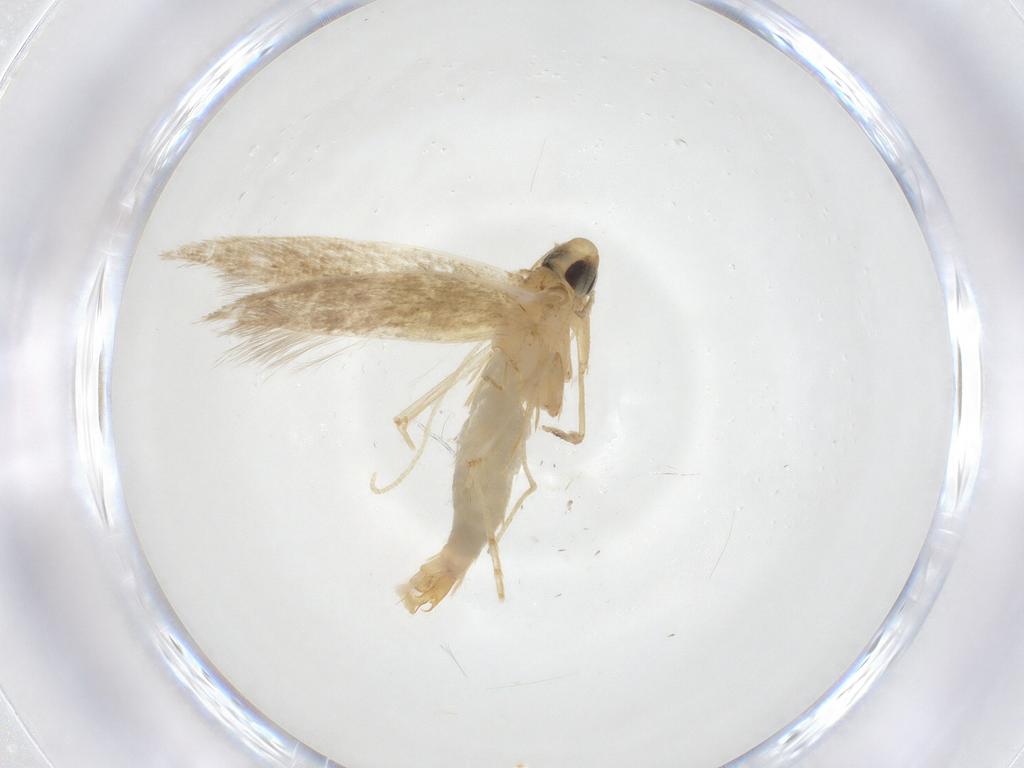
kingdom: Animalia
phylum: Arthropoda
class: Insecta
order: Lepidoptera
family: Tineidae
